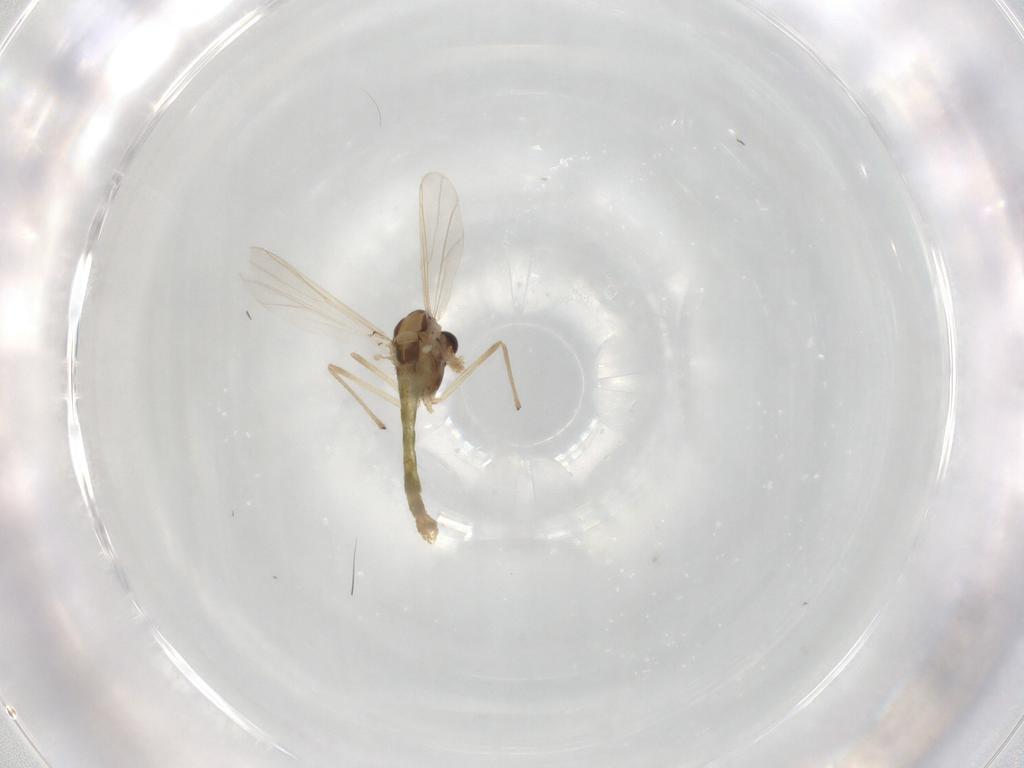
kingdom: Animalia
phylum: Arthropoda
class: Insecta
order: Diptera
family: Chironomidae
